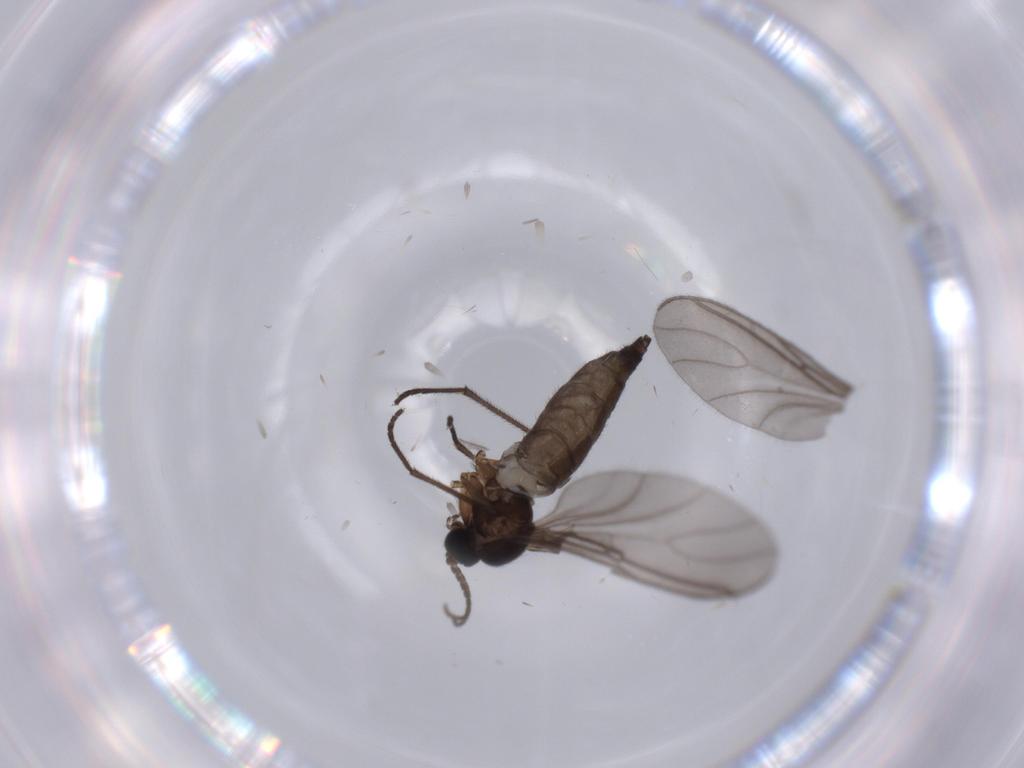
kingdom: Animalia
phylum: Arthropoda
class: Insecta
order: Diptera
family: Sciaridae
